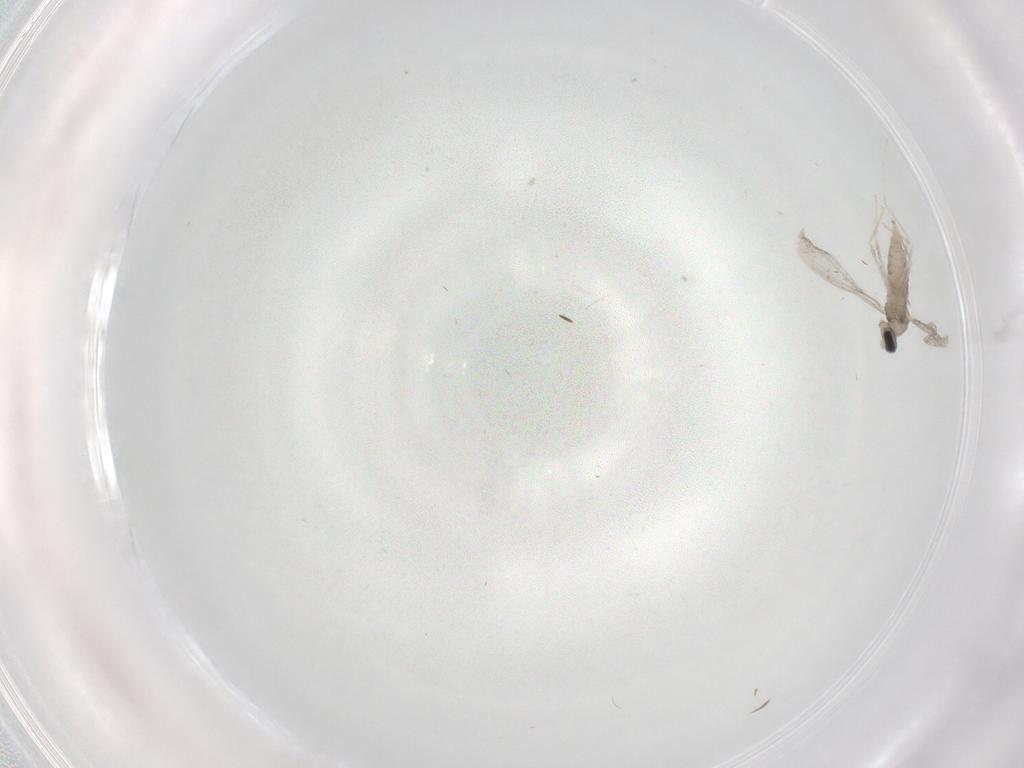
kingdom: Animalia
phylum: Arthropoda
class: Insecta
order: Diptera
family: Cecidomyiidae
